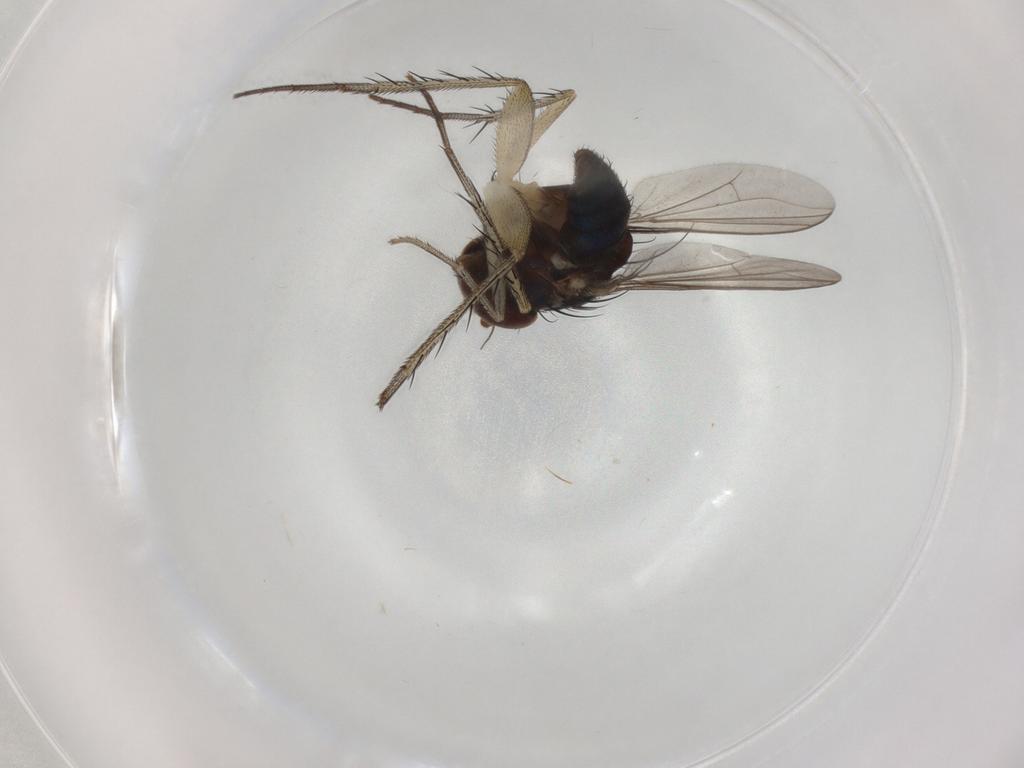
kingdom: Animalia
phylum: Arthropoda
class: Insecta
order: Diptera
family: Dolichopodidae
